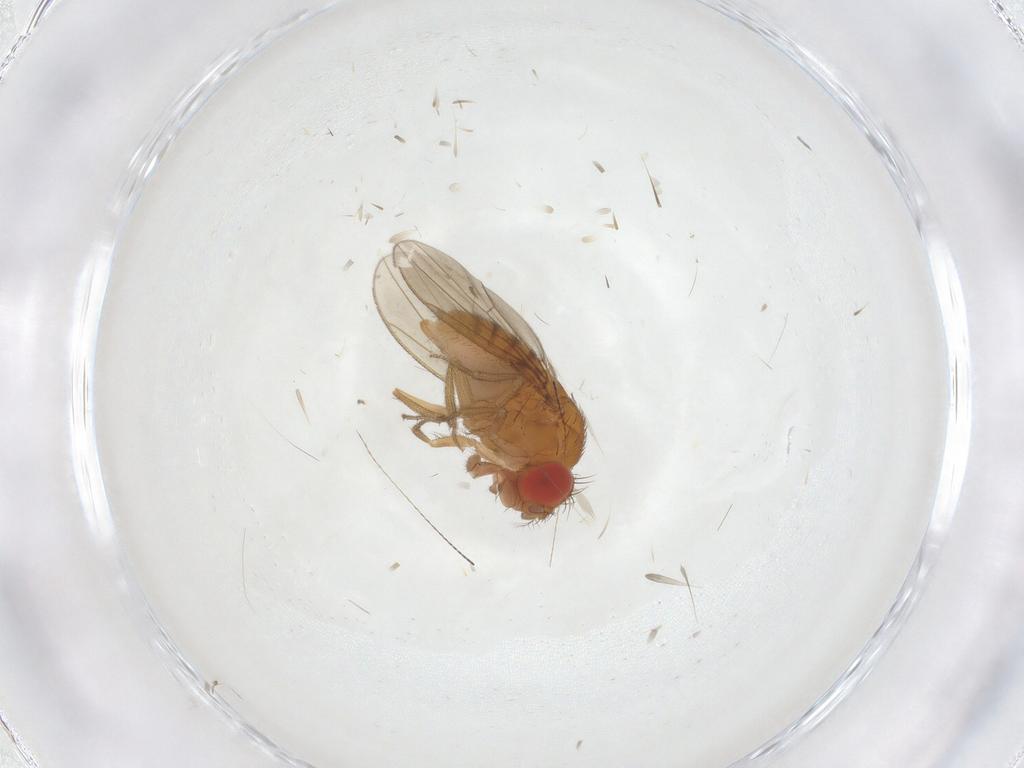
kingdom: Animalia
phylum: Arthropoda
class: Insecta
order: Diptera
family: Drosophilidae
